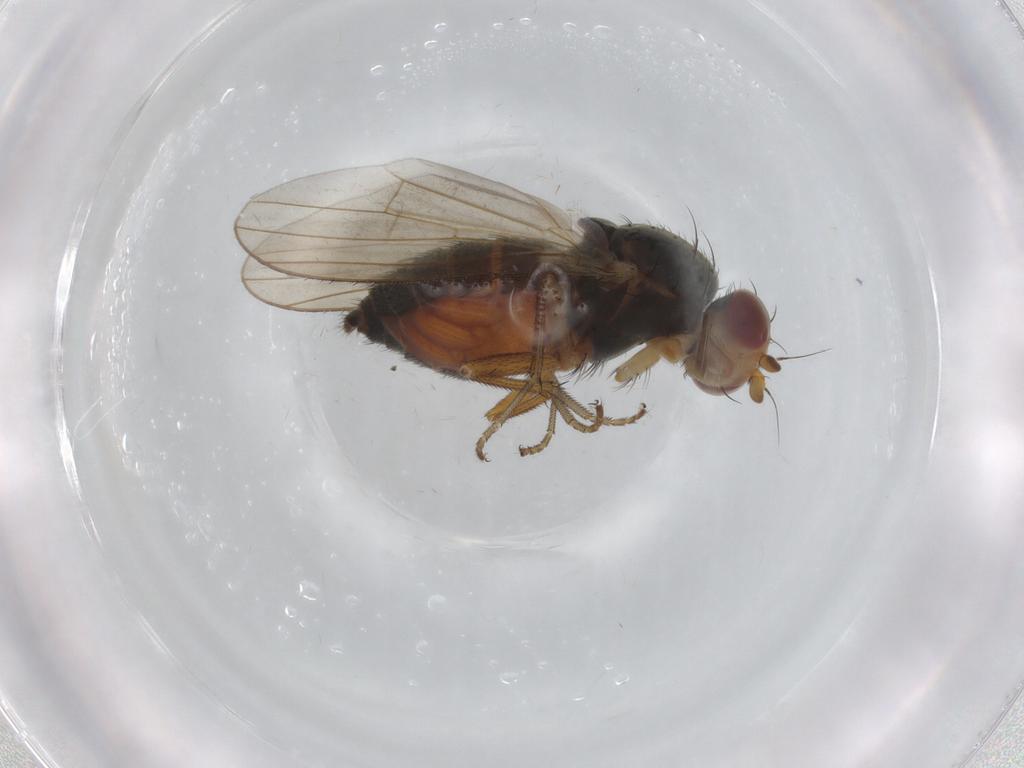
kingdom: Animalia
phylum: Arthropoda
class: Insecta
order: Diptera
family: Heleomyzidae
